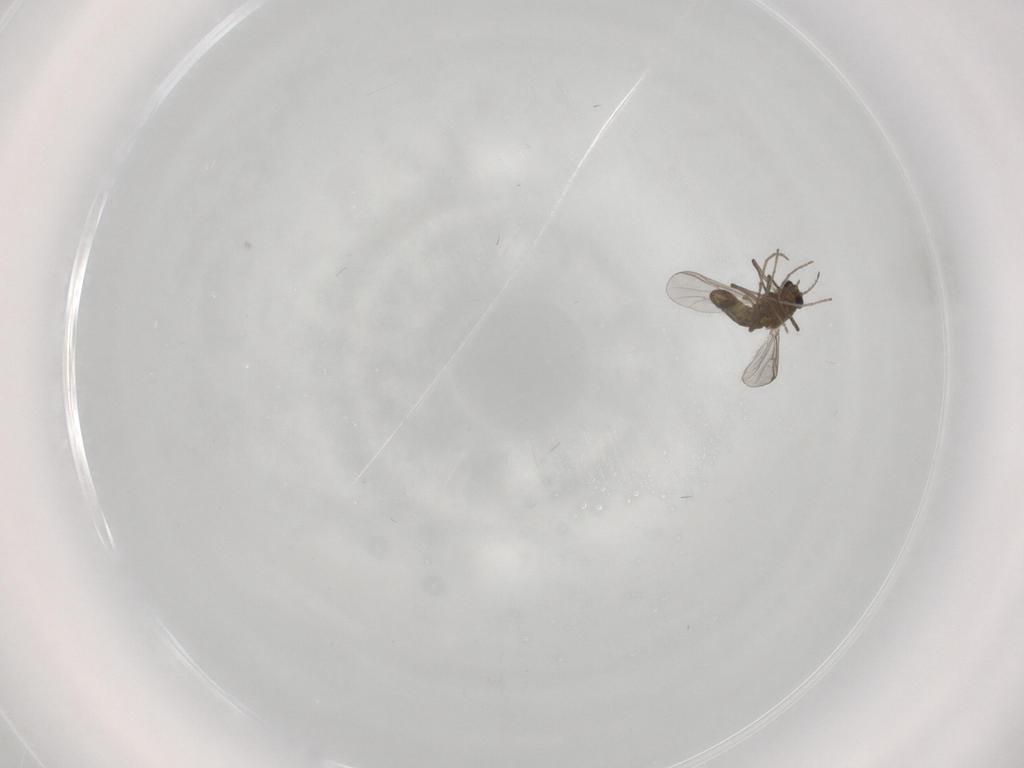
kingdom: Animalia
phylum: Arthropoda
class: Insecta
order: Diptera
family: Chironomidae
